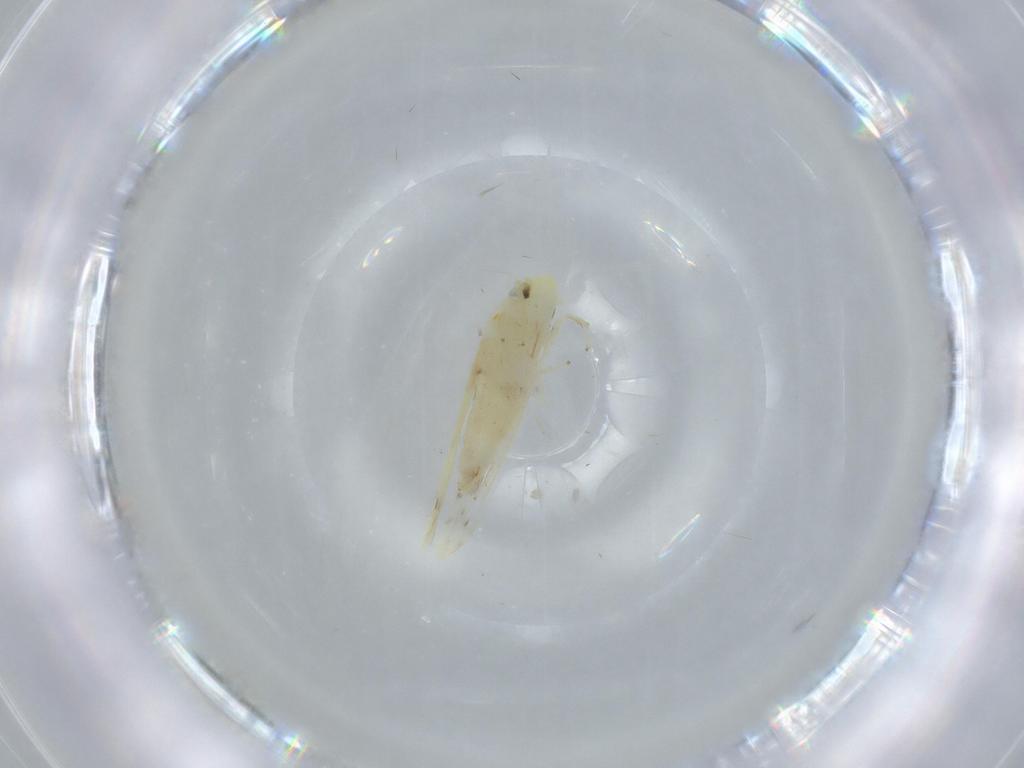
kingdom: Animalia
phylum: Arthropoda
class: Insecta
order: Hemiptera
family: Cicadellidae
